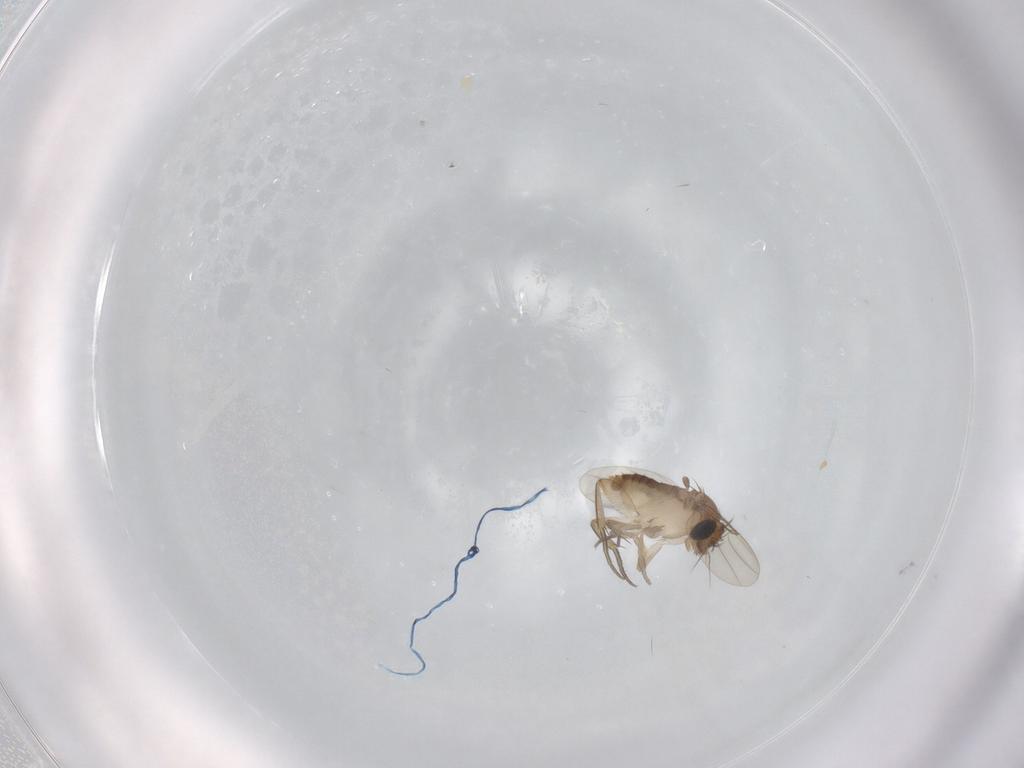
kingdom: Animalia
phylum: Arthropoda
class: Insecta
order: Diptera
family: Phoridae
